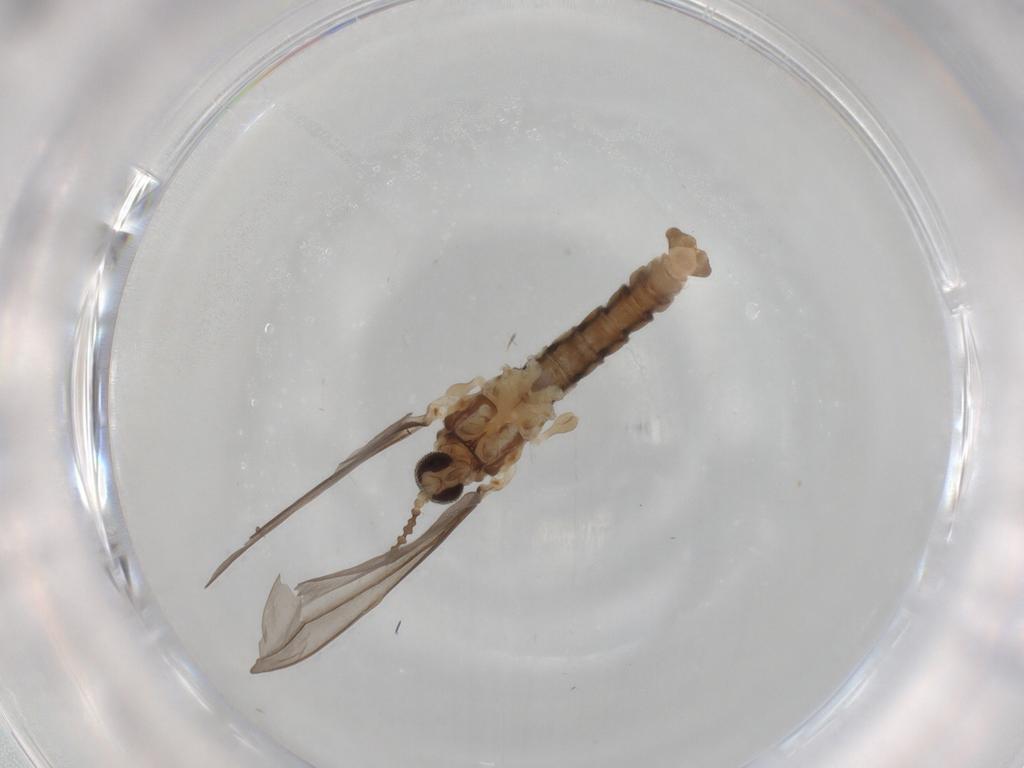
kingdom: Animalia
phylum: Arthropoda
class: Insecta
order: Diptera
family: Cecidomyiidae
